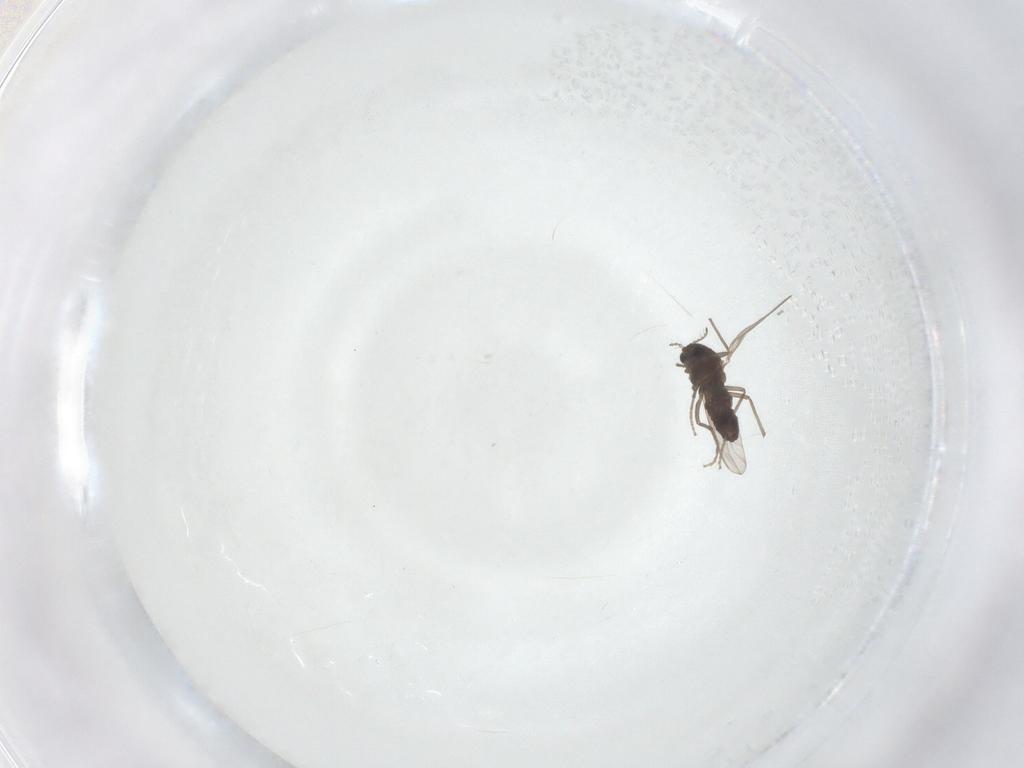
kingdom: Animalia
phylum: Arthropoda
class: Insecta
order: Diptera
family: Chironomidae
